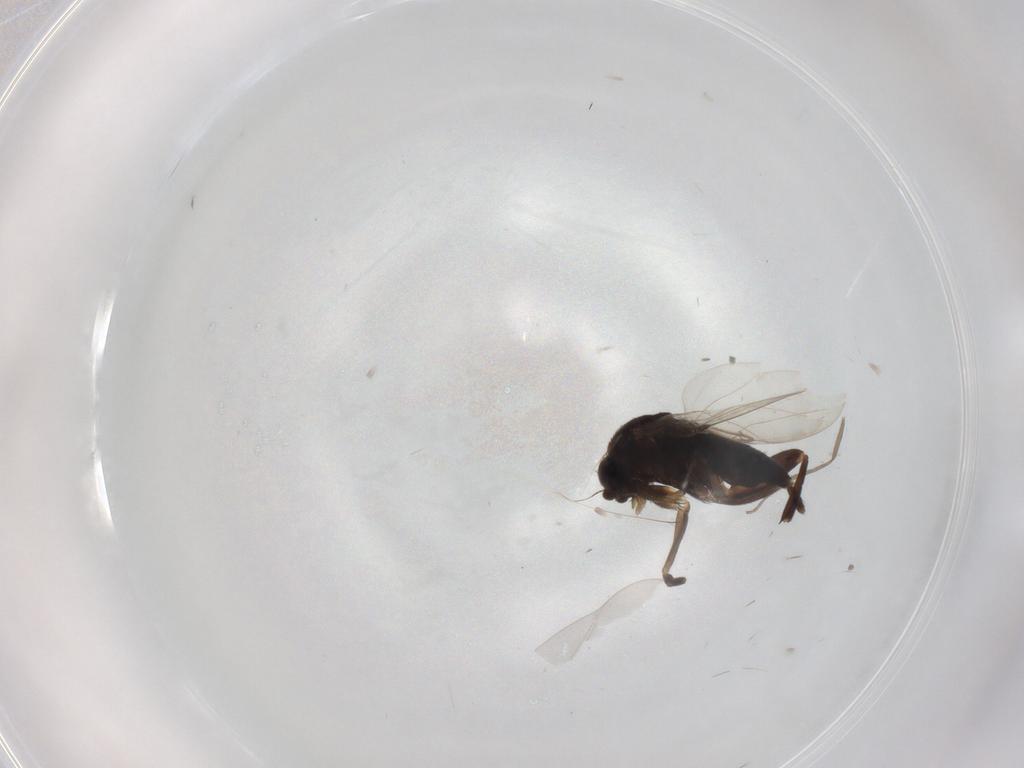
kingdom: Animalia
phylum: Arthropoda
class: Insecta
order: Diptera
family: Phoridae
